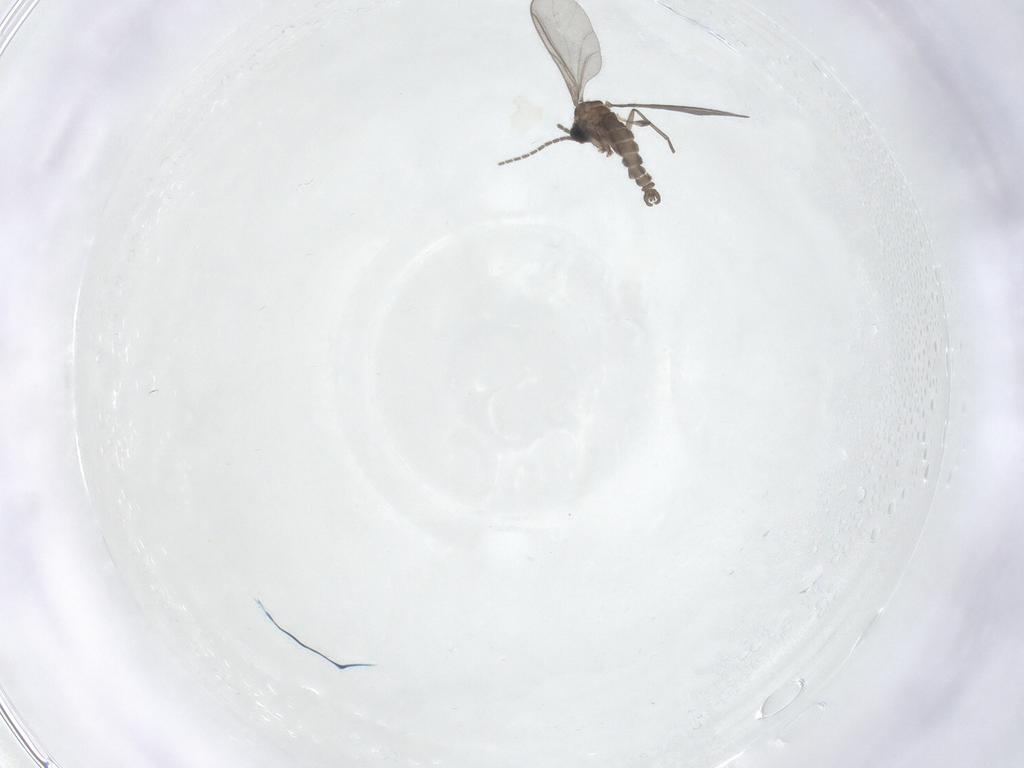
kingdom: Animalia
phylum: Arthropoda
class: Insecta
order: Diptera
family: Sciaridae
